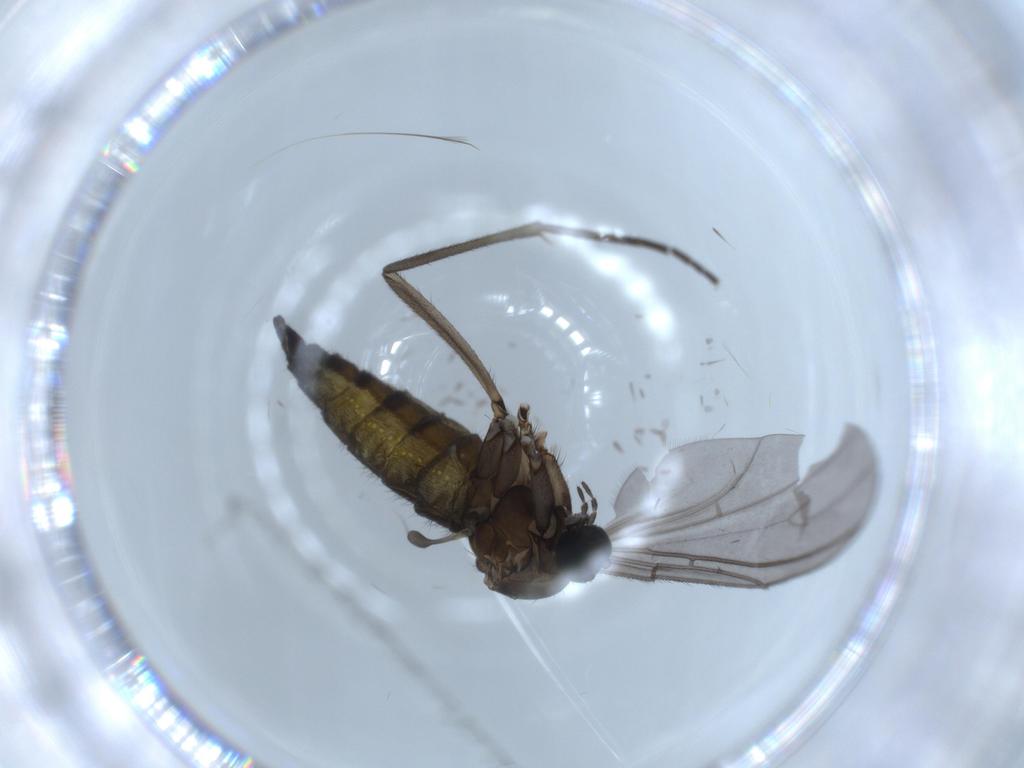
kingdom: Animalia
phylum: Arthropoda
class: Insecta
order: Diptera
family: Sciaridae
